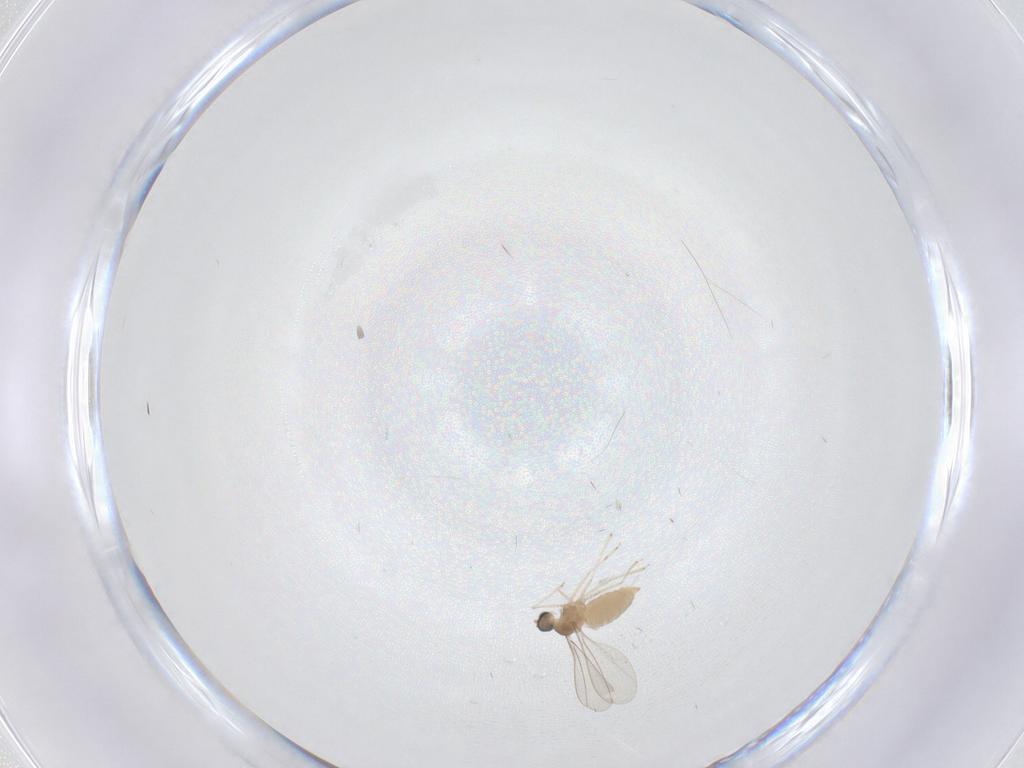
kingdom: Animalia
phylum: Arthropoda
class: Insecta
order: Diptera
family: Cecidomyiidae
